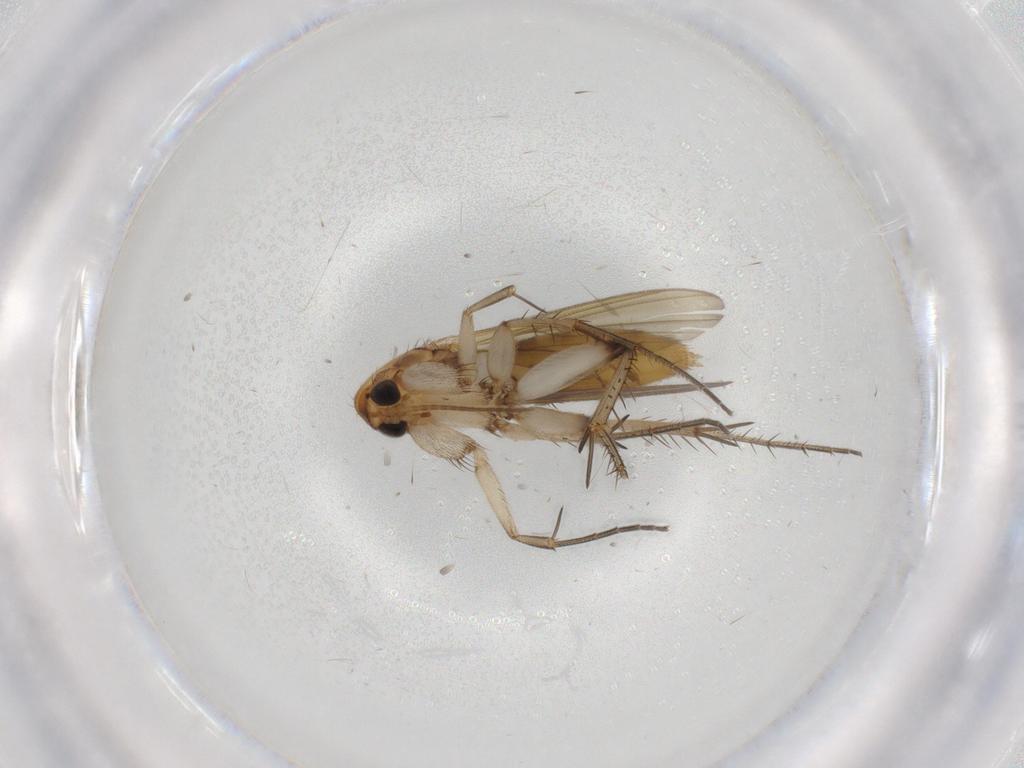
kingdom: Animalia
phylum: Arthropoda
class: Insecta
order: Diptera
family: Mycetophilidae
